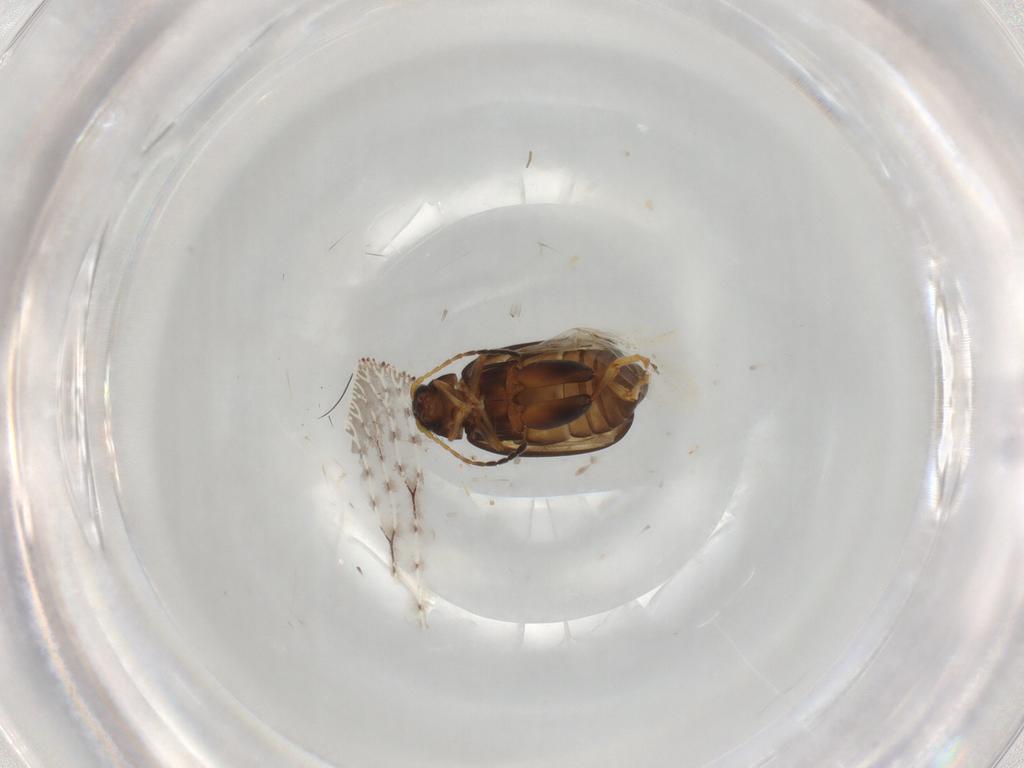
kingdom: Animalia
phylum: Arthropoda
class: Insecta
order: Coleoptera
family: Chrysomelidae
